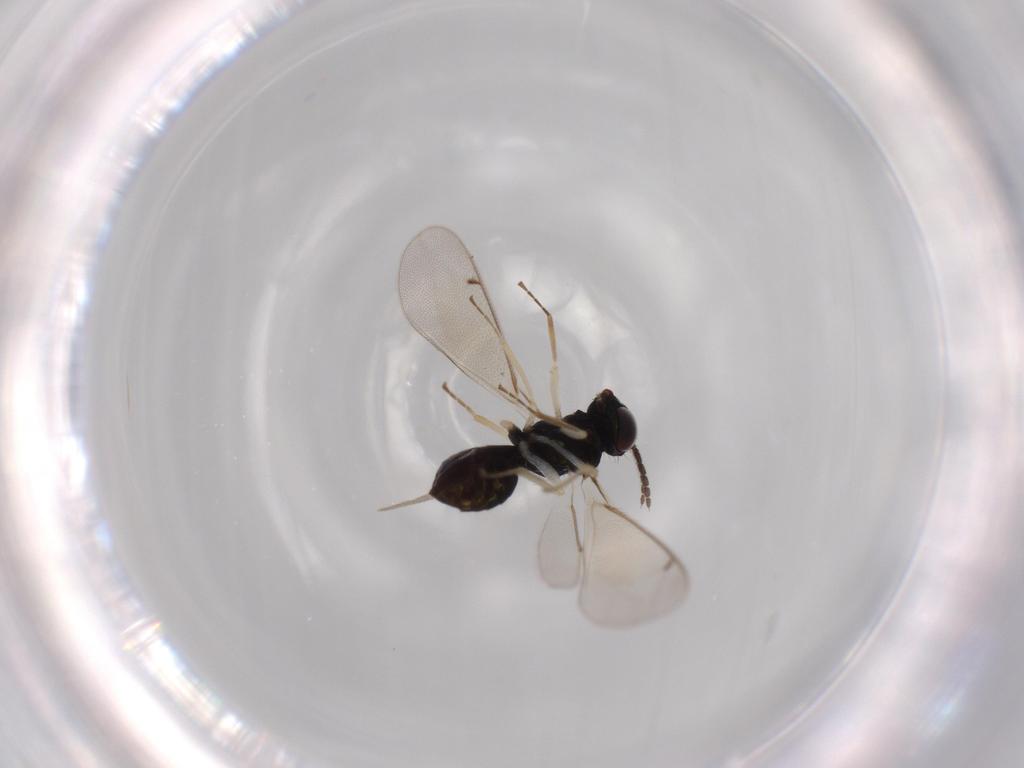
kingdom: Animalia
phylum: Arthropoda
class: Insecta
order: Hymenoptera
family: Eulophidae
